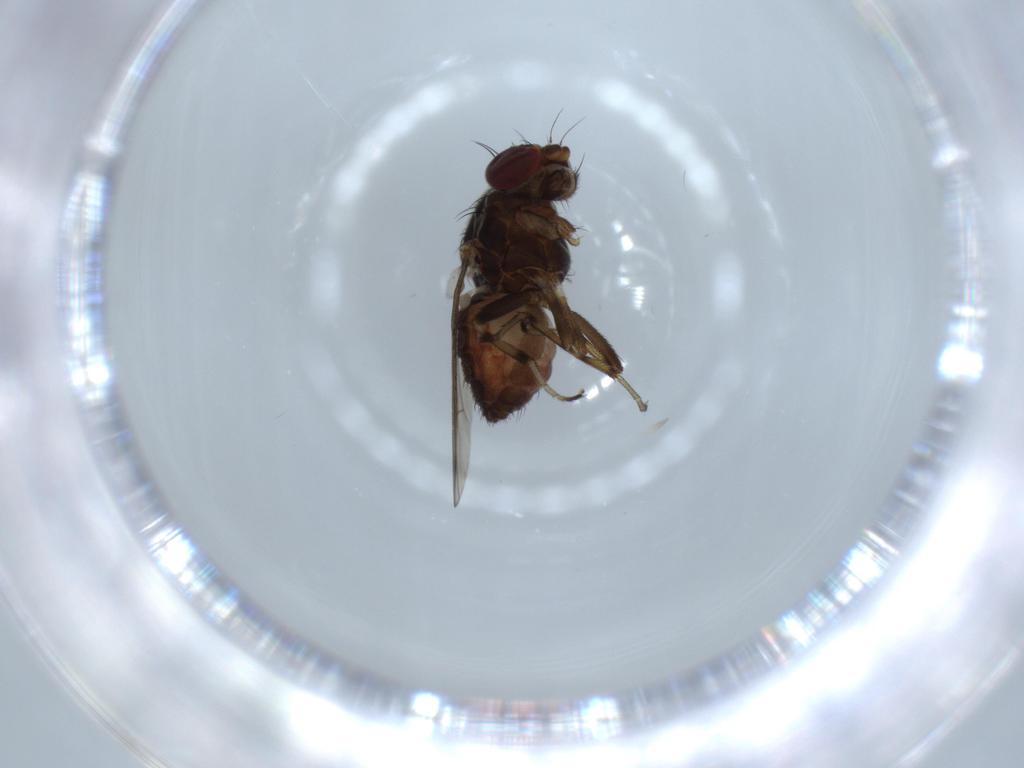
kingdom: Animalia
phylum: Arthropoda
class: Insecta
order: Diptera
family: Heleomyzidae
